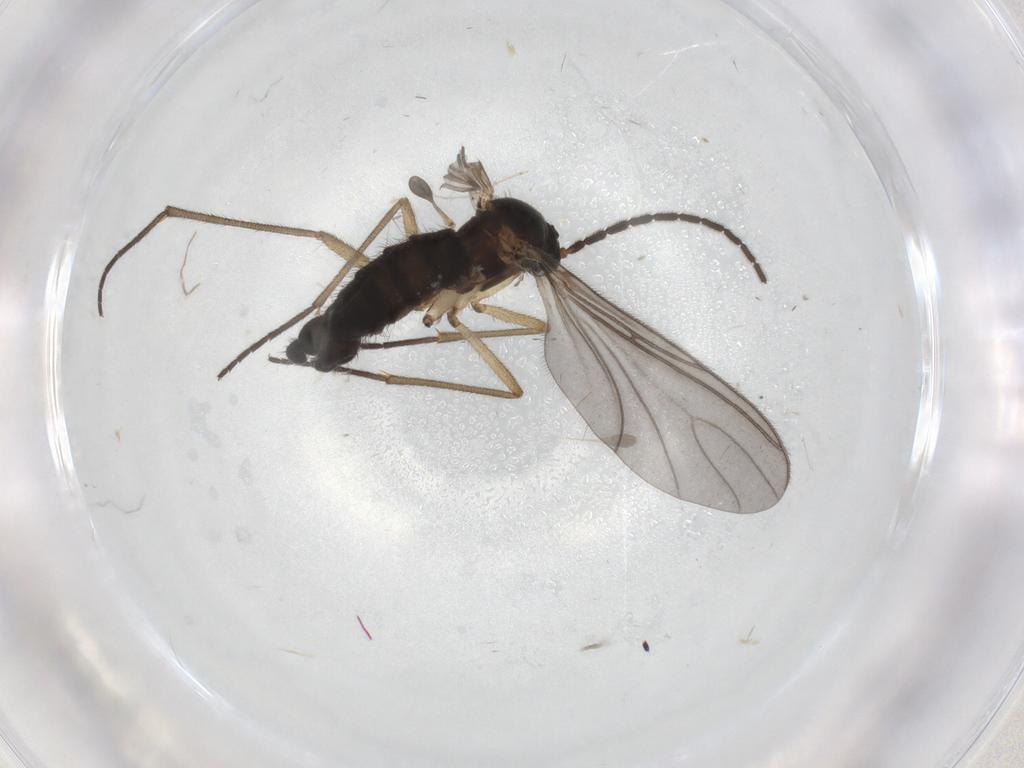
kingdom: Animalia
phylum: Arthropoda
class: Insecta
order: Diptera
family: Sciaridae
